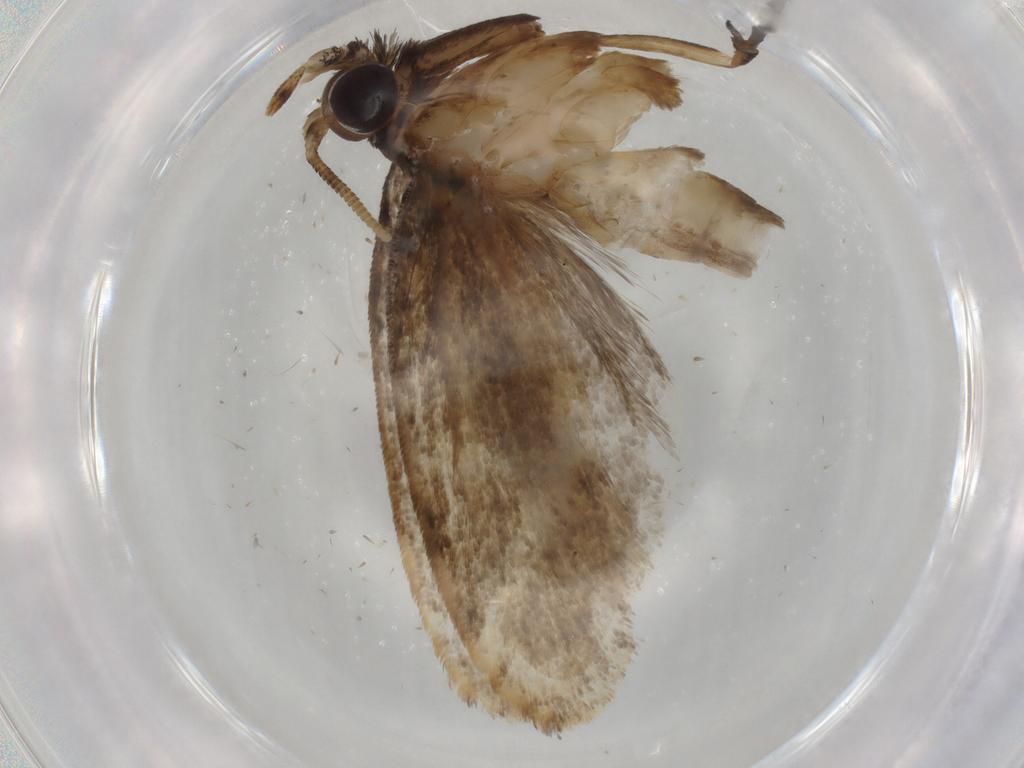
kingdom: Animalia
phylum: Arthropoda
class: Insecta
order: Lepidoptera
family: Tineidae
